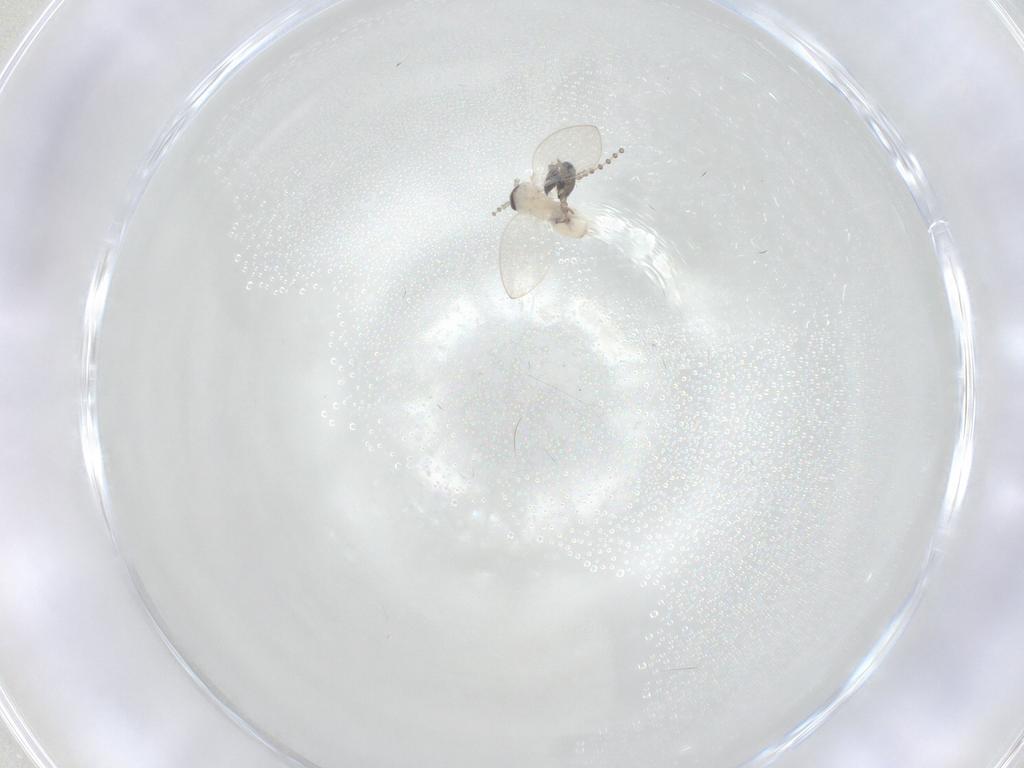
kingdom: Animalia
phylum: Arthropoda
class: Insecta
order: Diptera
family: Psychodidae
